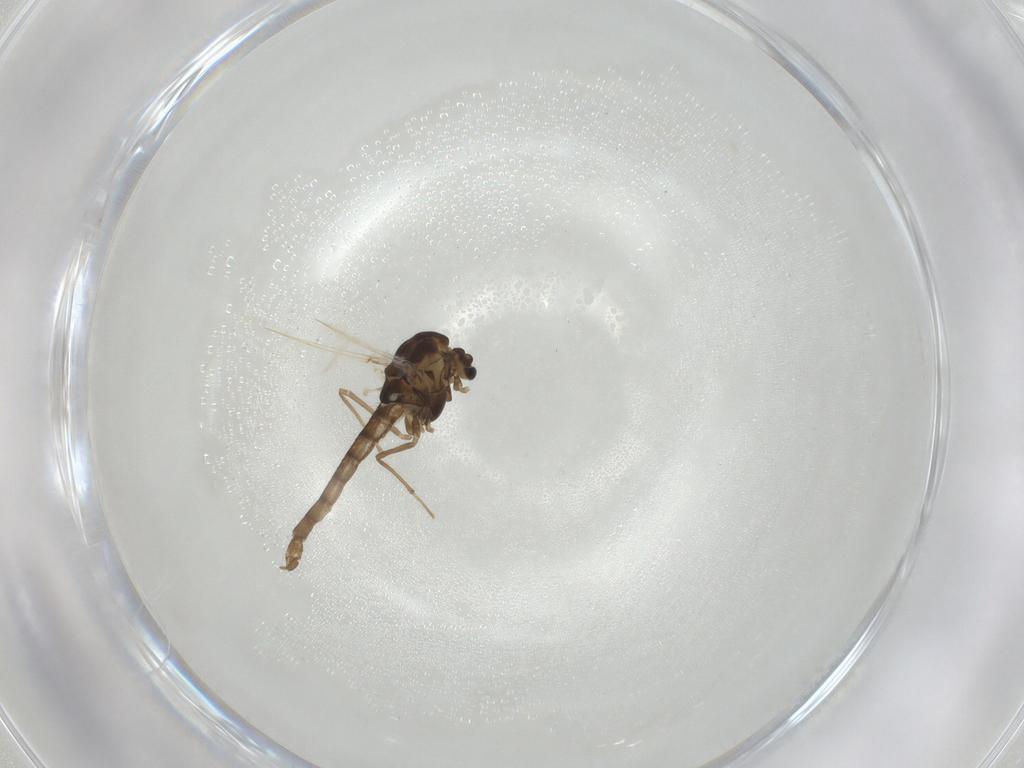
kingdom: Animalia
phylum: Arthropoda
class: Insecta
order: Diptera
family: Chironomidae
